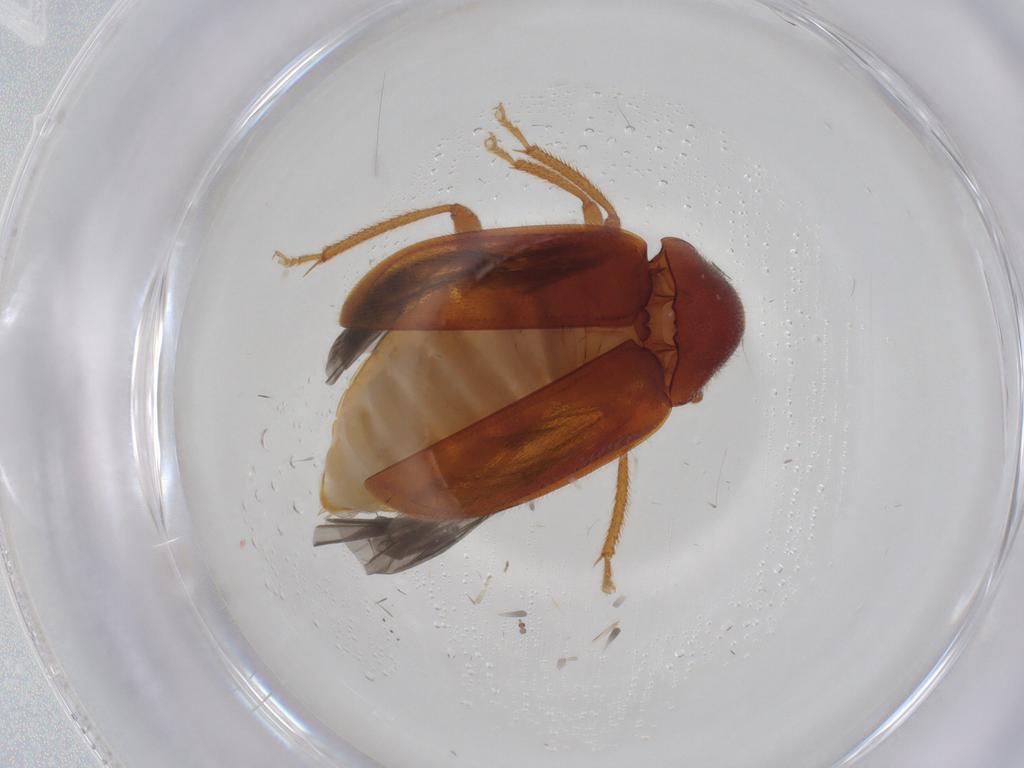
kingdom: Animalia
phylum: Arthropoda
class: Insecta
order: Coleoptera
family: Ptilodactylidae
